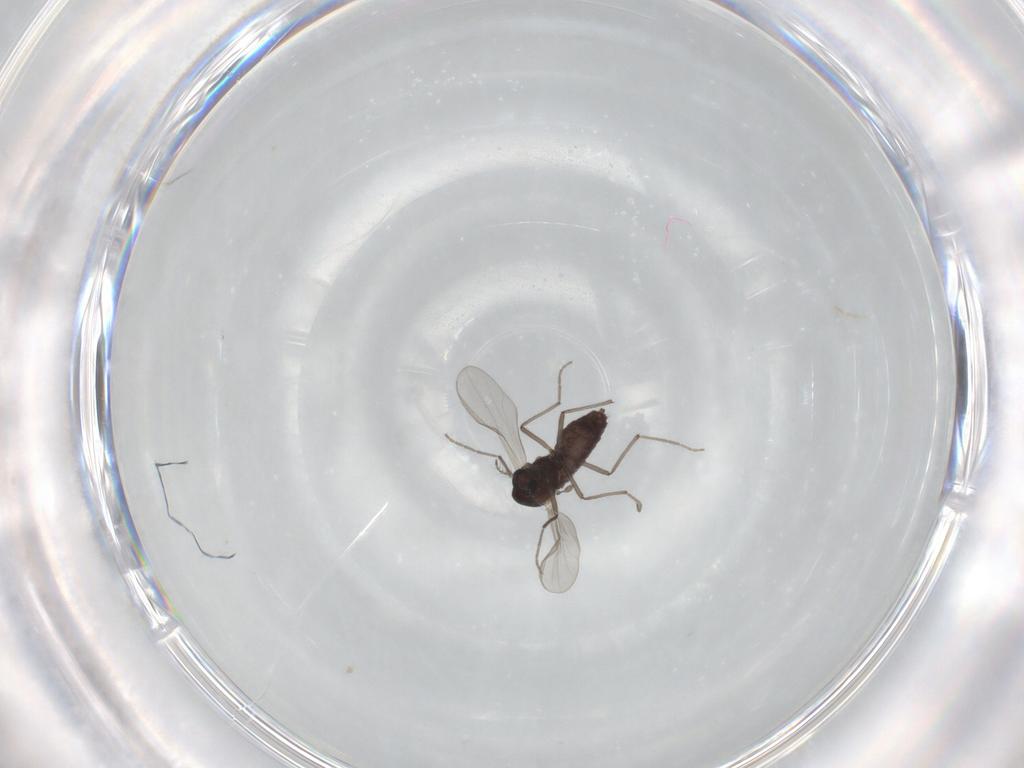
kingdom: Animalia
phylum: Arthropoda
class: Insecta
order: Diptera
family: Chironomidae
